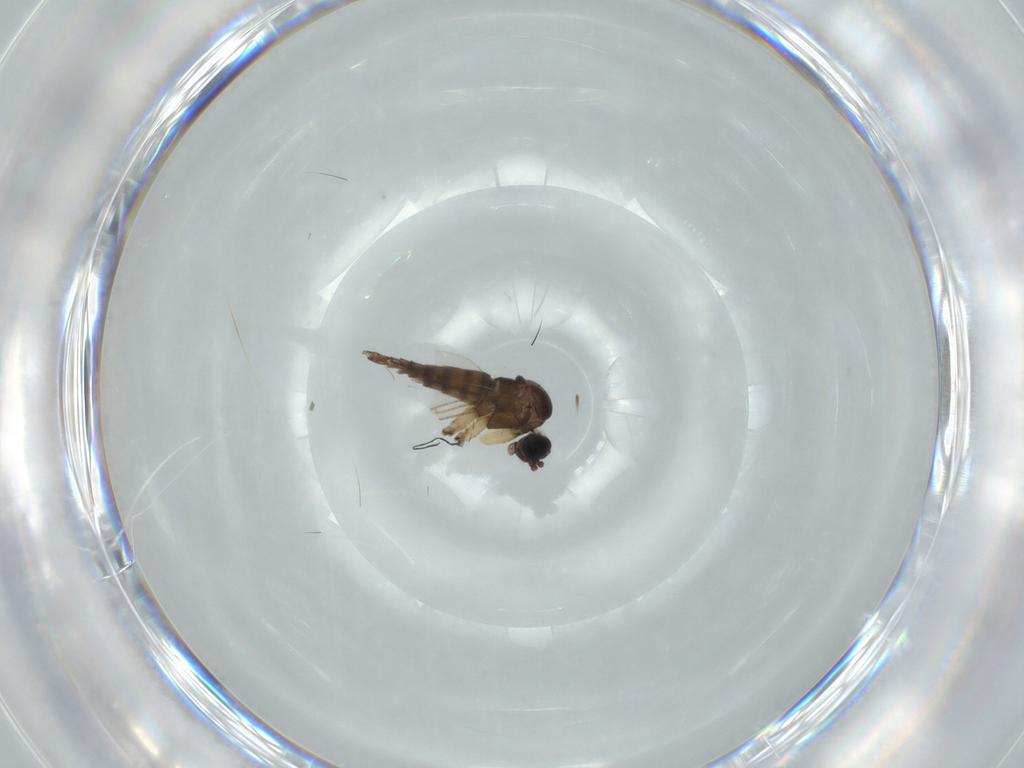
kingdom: Animalia
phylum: Arthropoda
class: Insecta
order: Diptera
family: Sciaridae
